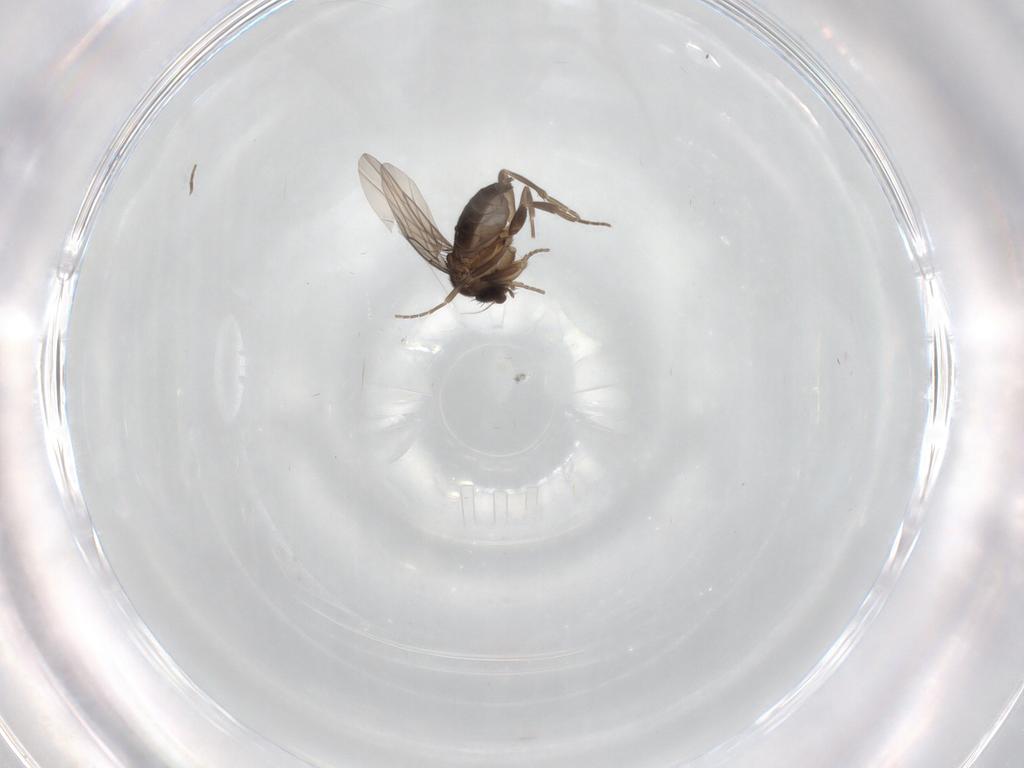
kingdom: Animalia
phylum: Arthropoda
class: Insecta
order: Diptera
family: Phoridae
